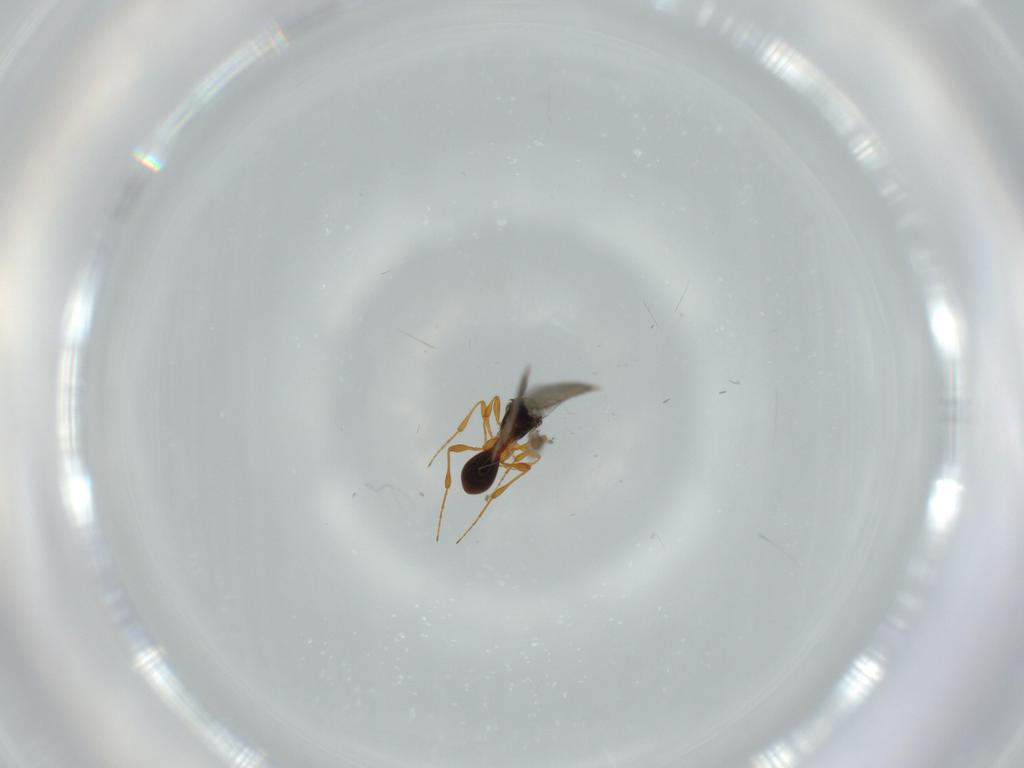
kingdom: Animalia
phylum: Arthropoda
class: Insecta
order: Hymenoptera
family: Platygastridae
